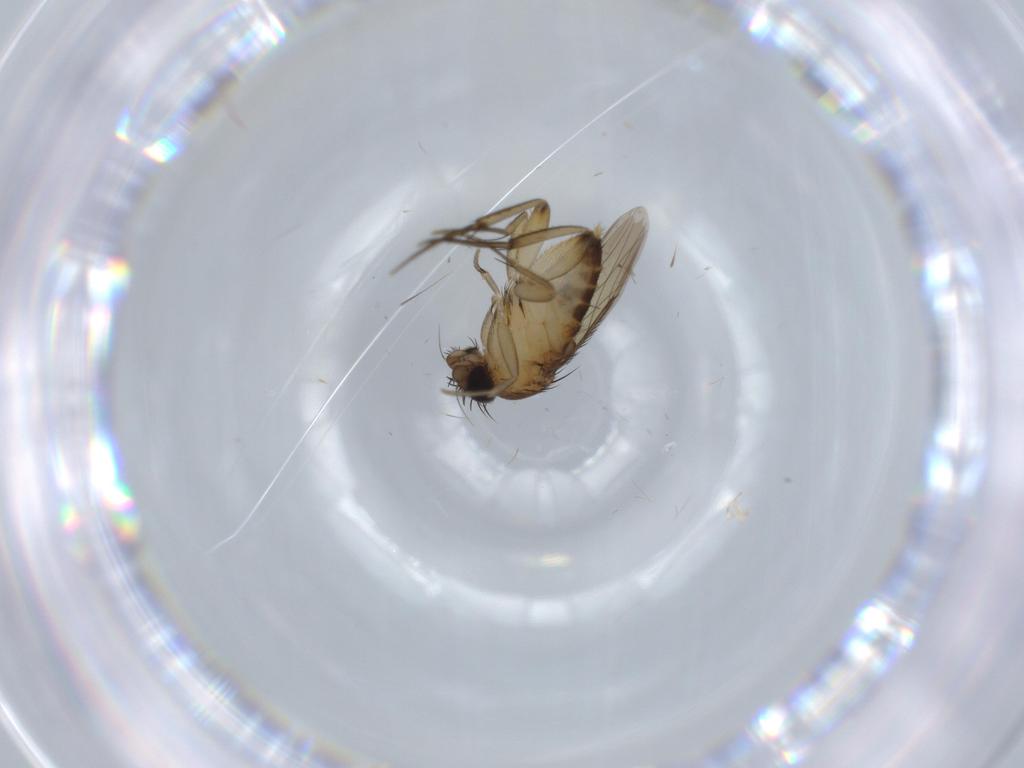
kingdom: Animalia
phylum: Arthropoda
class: Insecta
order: Diptera
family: Phoridae
